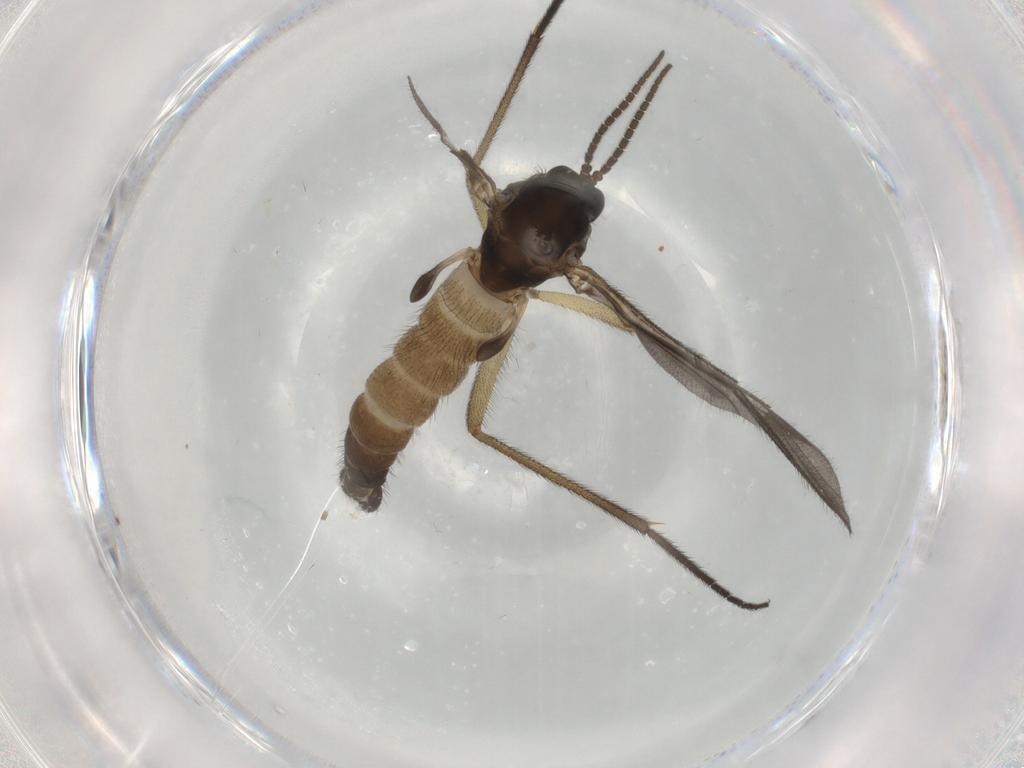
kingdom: Animalia
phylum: Arthropoda
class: Insecta
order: Diptera
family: Sciaridae
